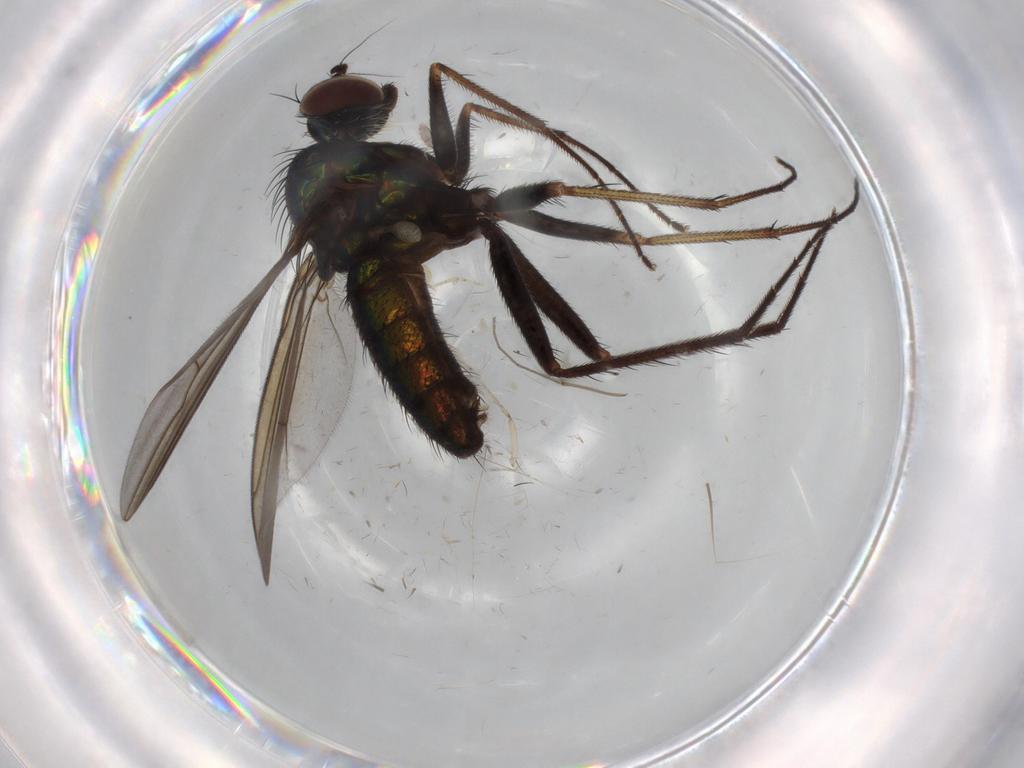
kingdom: Animalia
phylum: Arthropoda
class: Insecta
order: Diptera
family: Dolichopodidae
